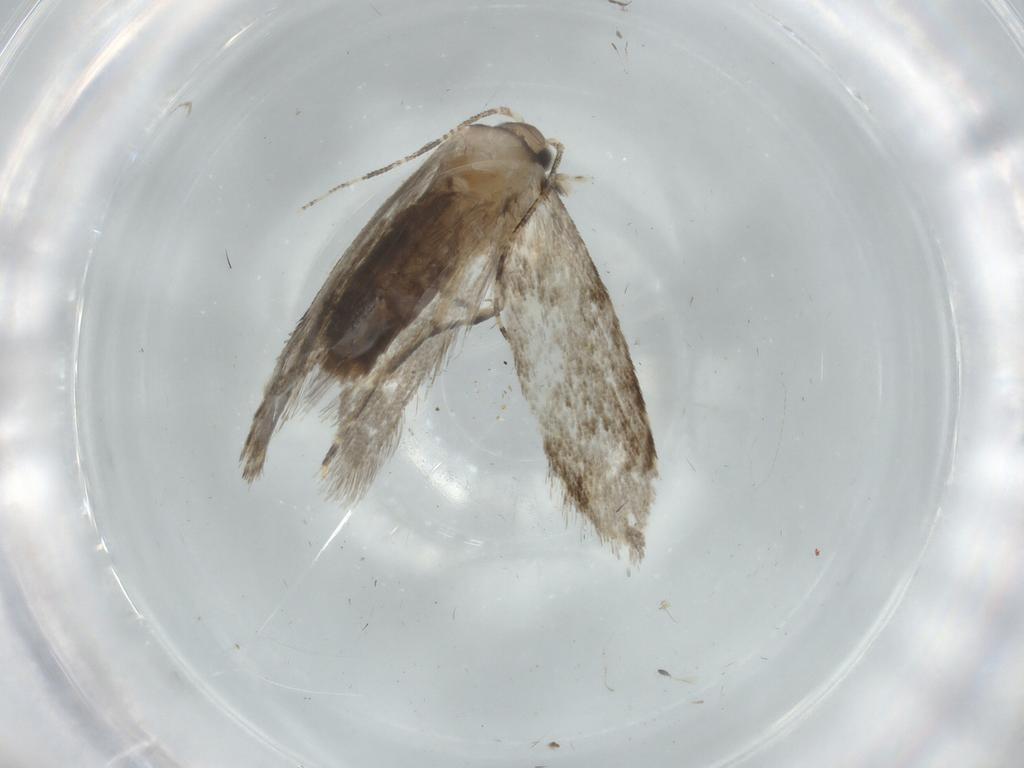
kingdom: Animalia
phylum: Arthropoda
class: Insecta
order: Lepidoptera
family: Tineidae
